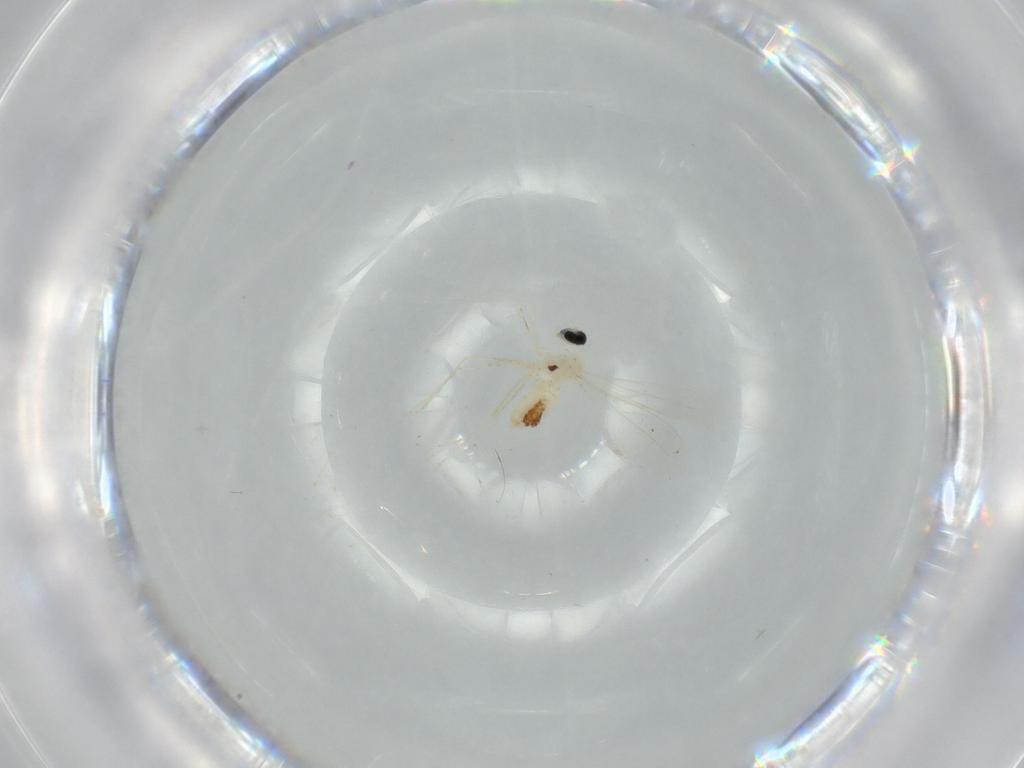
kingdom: Animalia
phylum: Arthropoda
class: Insecta
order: Diptera
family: Cecidomyiidae
